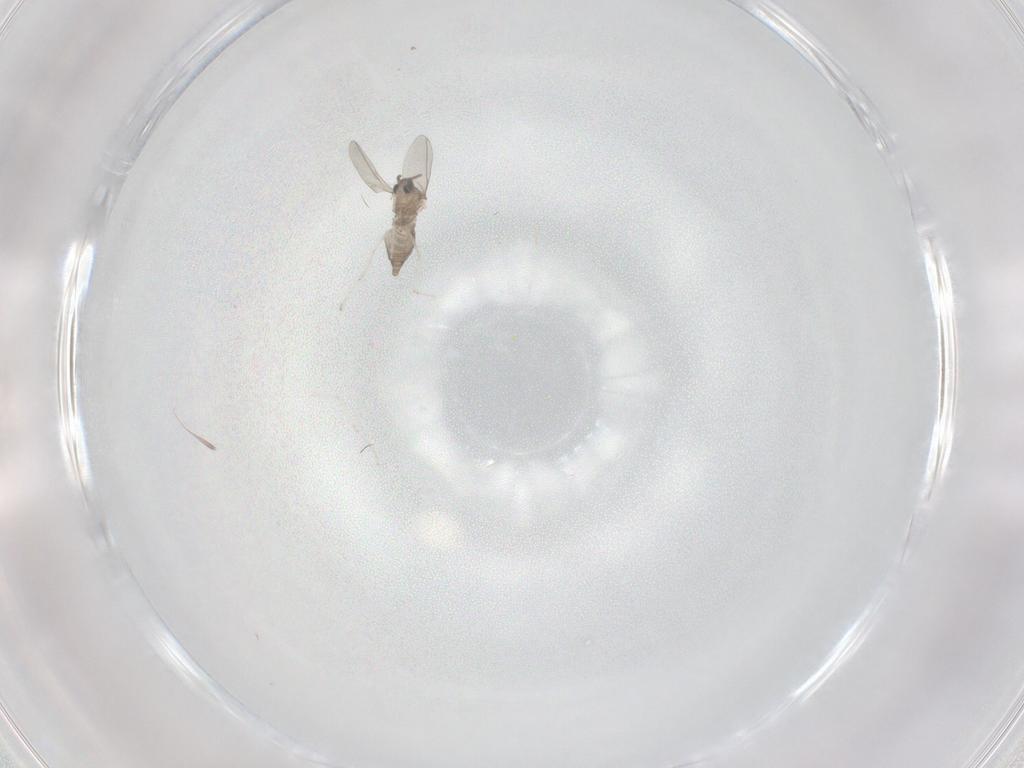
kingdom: Animalia
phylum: Arthropoda
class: Insecta
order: Diptera
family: Cecidomyiidae
